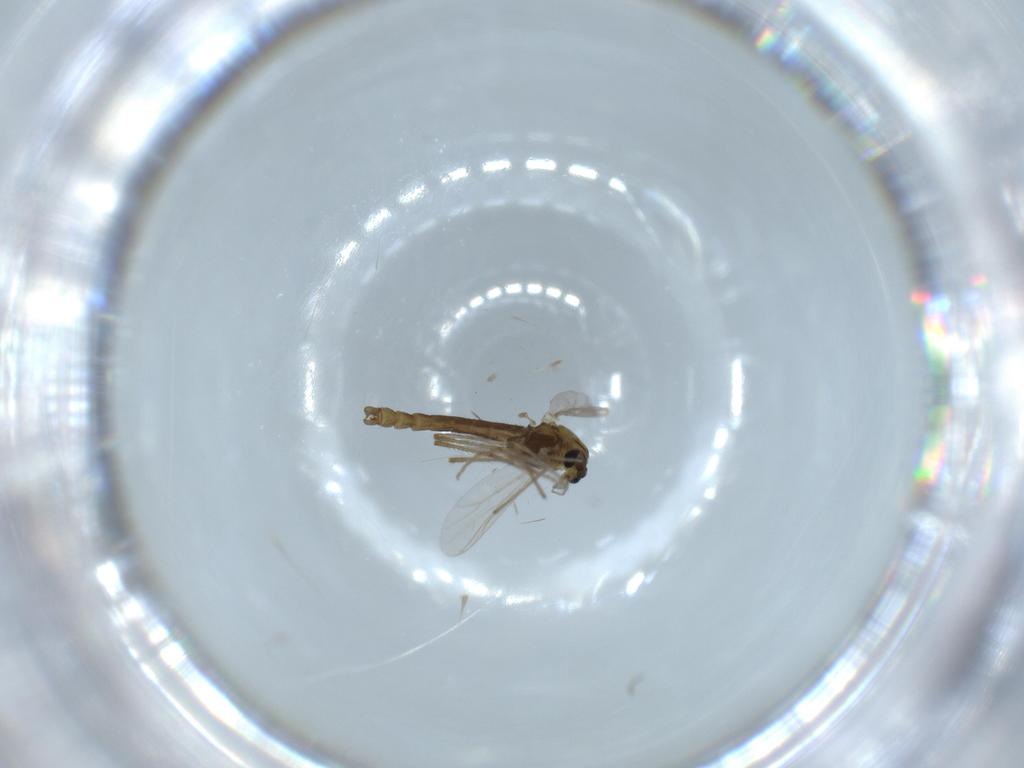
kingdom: Animalia
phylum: Arthropoda
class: Insecta
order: Diptera
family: Chironomidae
